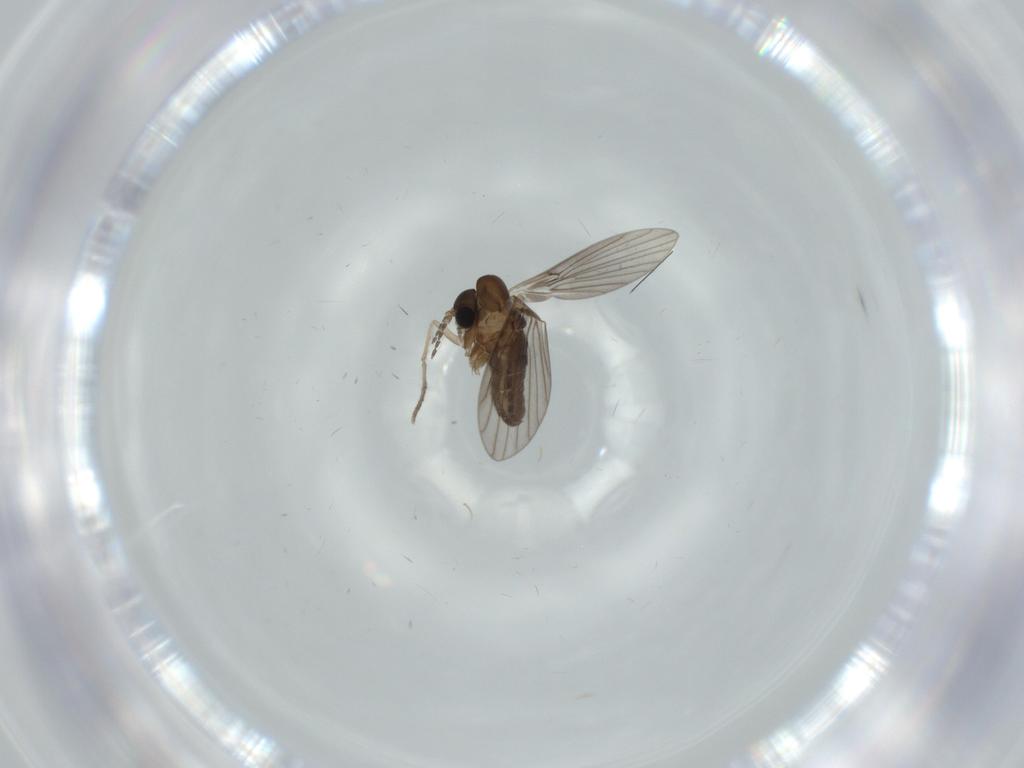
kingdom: Animalia
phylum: Arthropoda
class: Insecta
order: Diptera
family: Psychodidae
